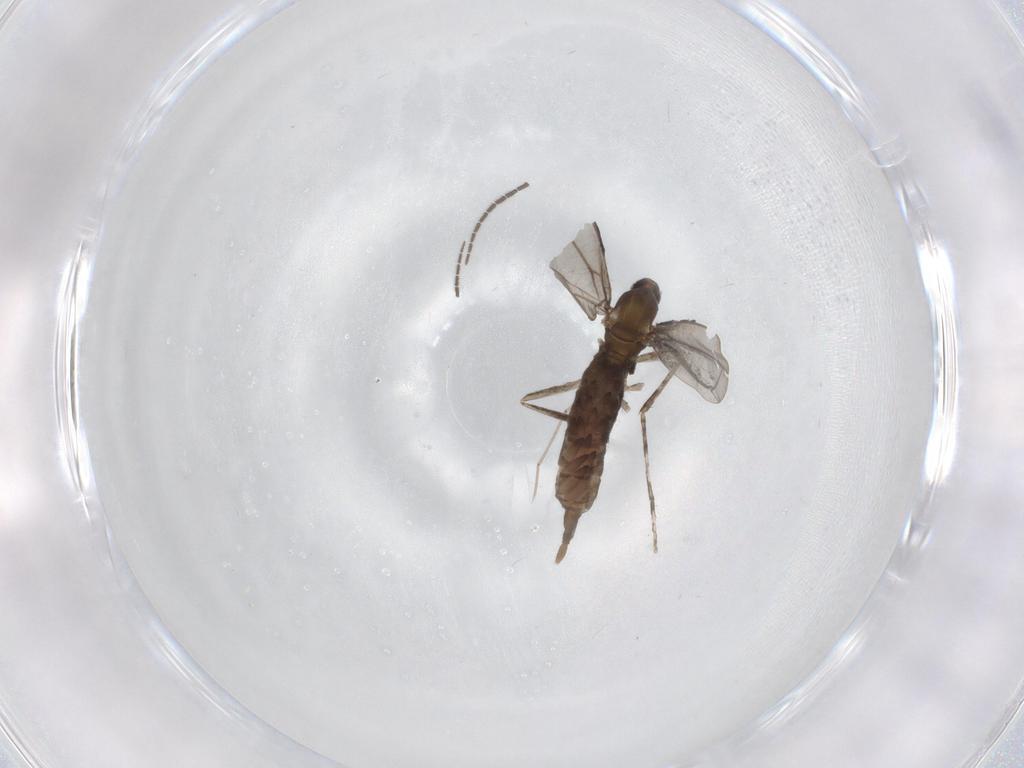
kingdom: Animalia
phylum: Arthropoda
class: Insecta
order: Diptera
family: Cecidomyiidae
